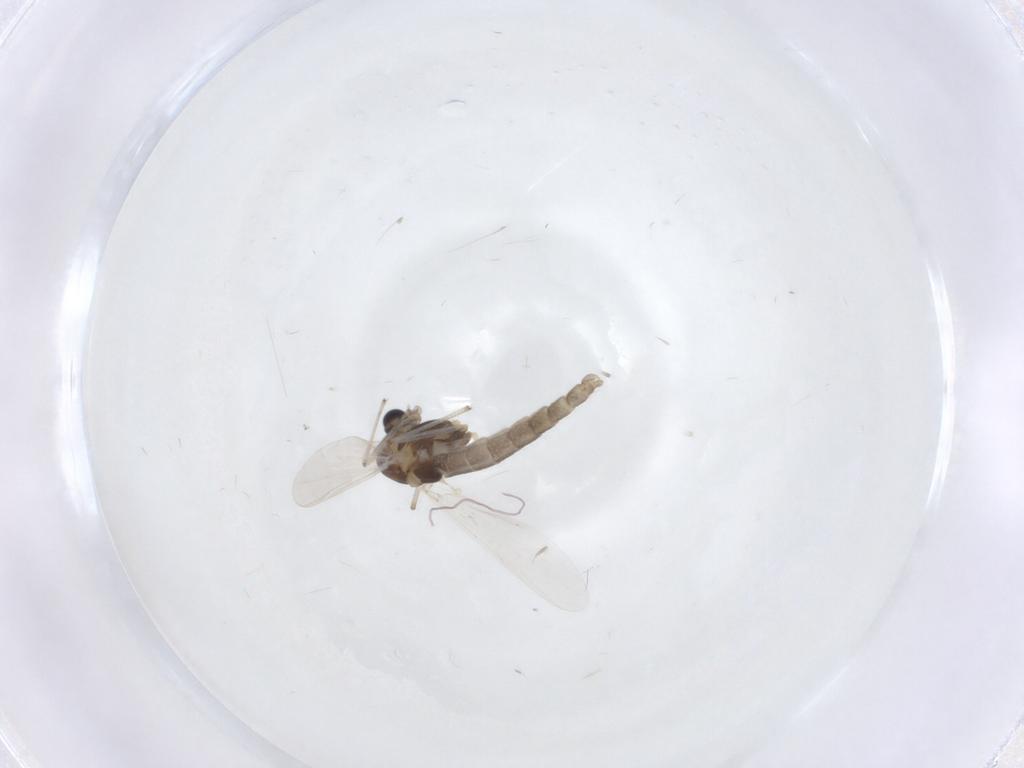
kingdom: Animalia
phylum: Arthropoda
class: Insecta
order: Diptera
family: Chironomidae
